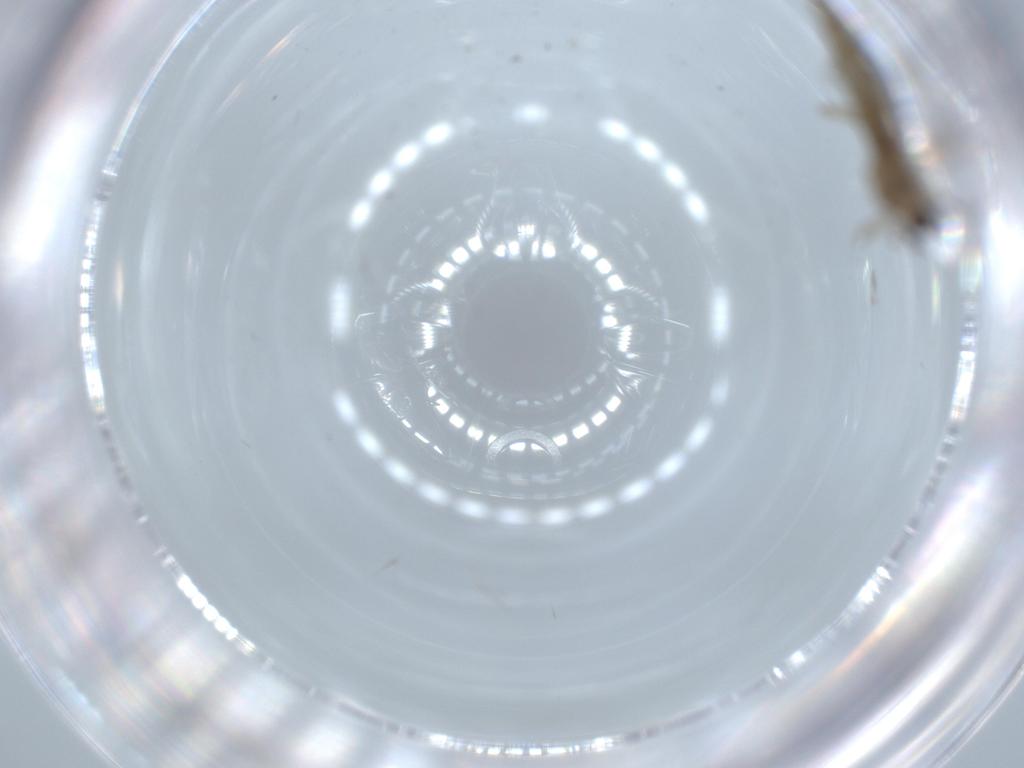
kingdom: Animalia
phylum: Arthropoda
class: Insecta
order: Diptera
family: Cecidomyiidae
